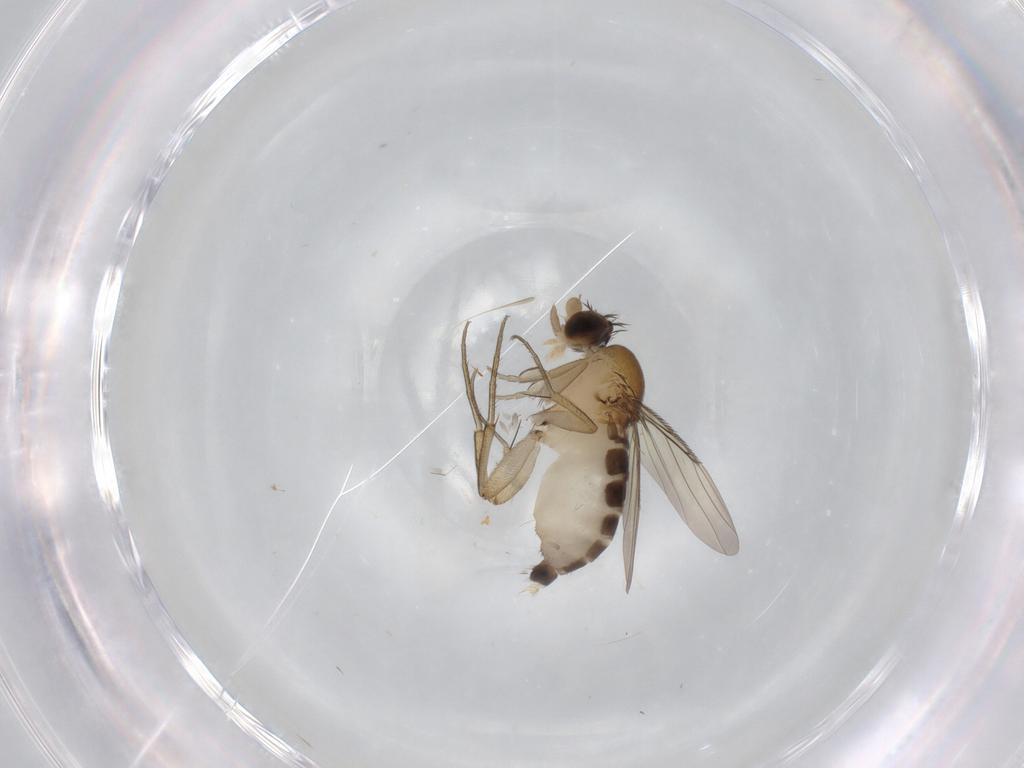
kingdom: Animalia
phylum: Arthropoda
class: Insecta
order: Diptera
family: Phoridae
